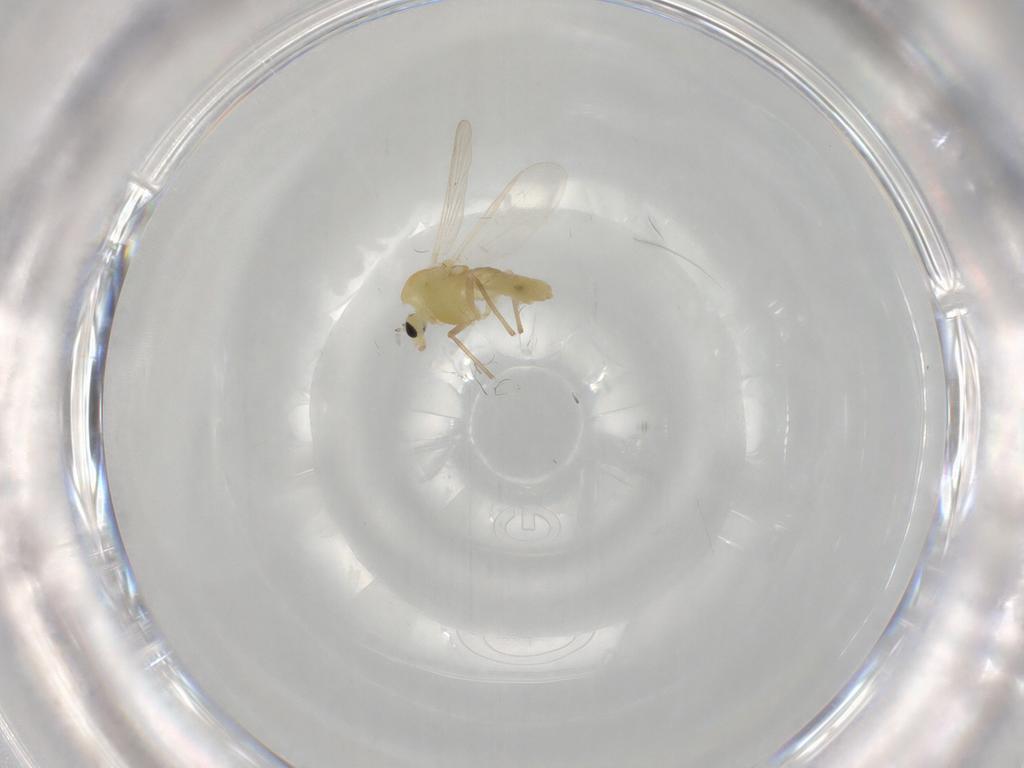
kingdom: Animalia
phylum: Arthropoda
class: Insecta
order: Diptera
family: Chironomidae
